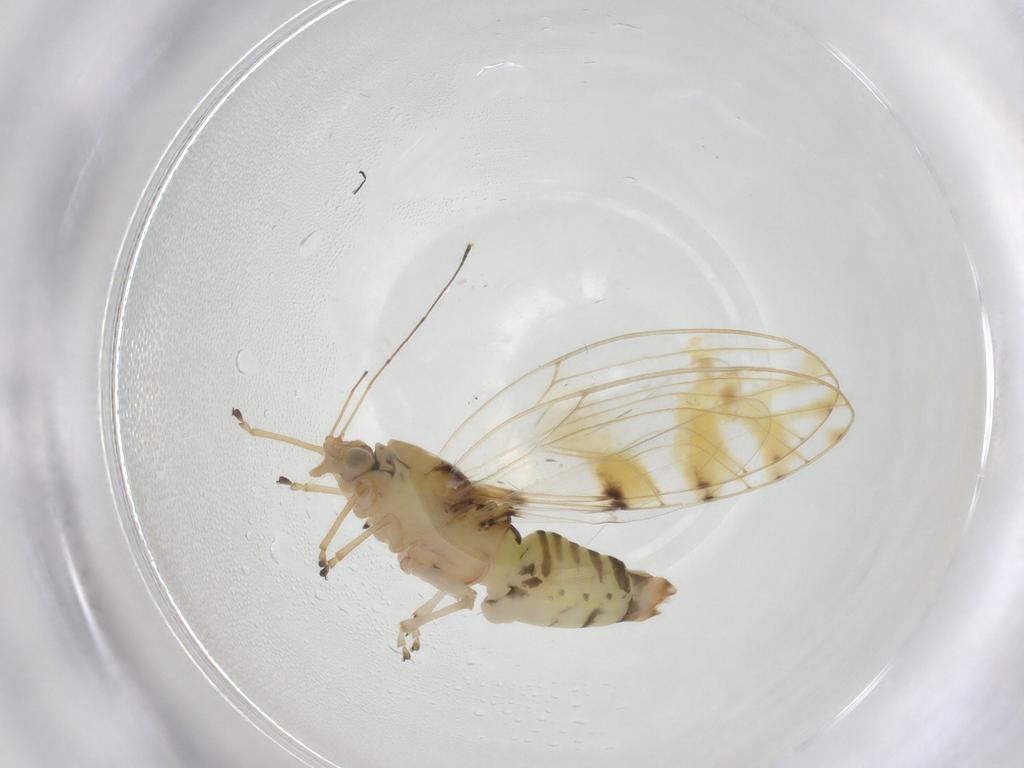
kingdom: Animalia
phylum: Arthropoda
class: Insecta
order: Hemiptera
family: Triozidae
